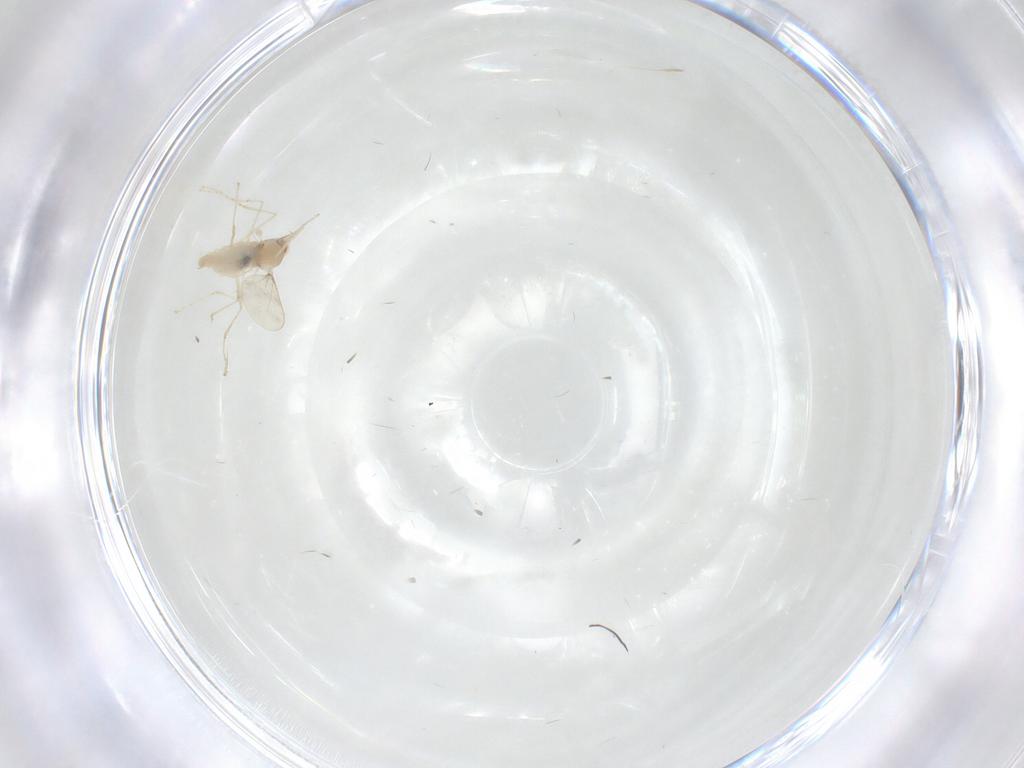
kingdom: Animalia
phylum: Arthropoda
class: Insecta
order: Diptera
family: Cecidomyiidae
